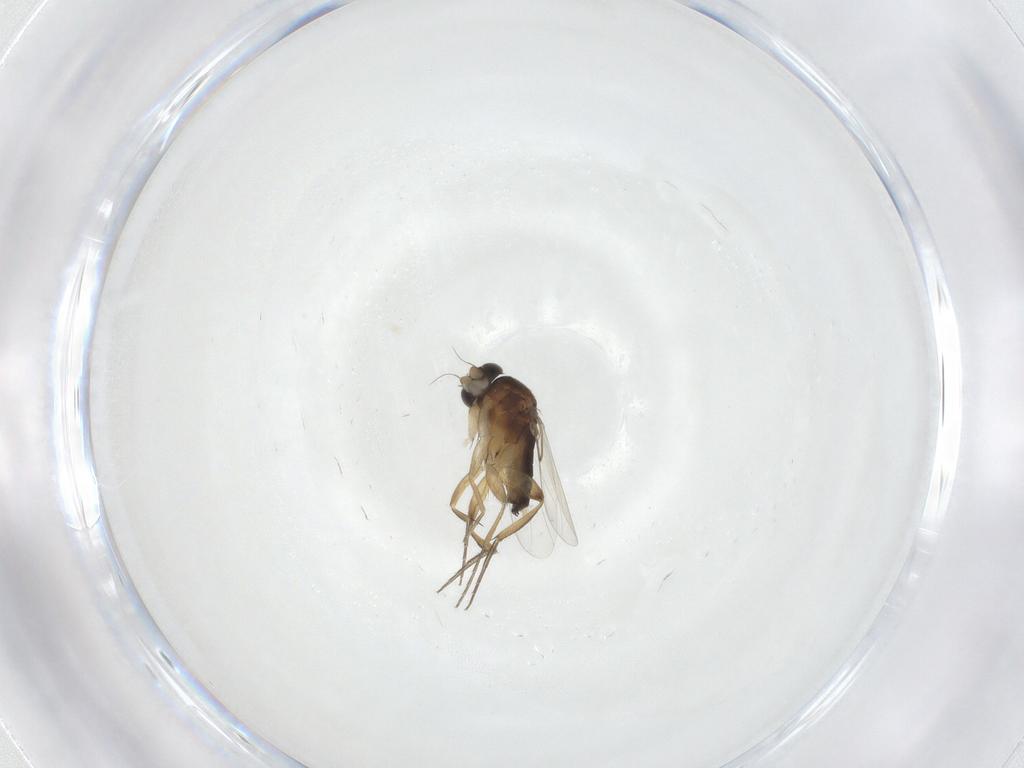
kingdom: Animalia
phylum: Arthropoda
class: Insecta
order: Diptera
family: Phoridae
